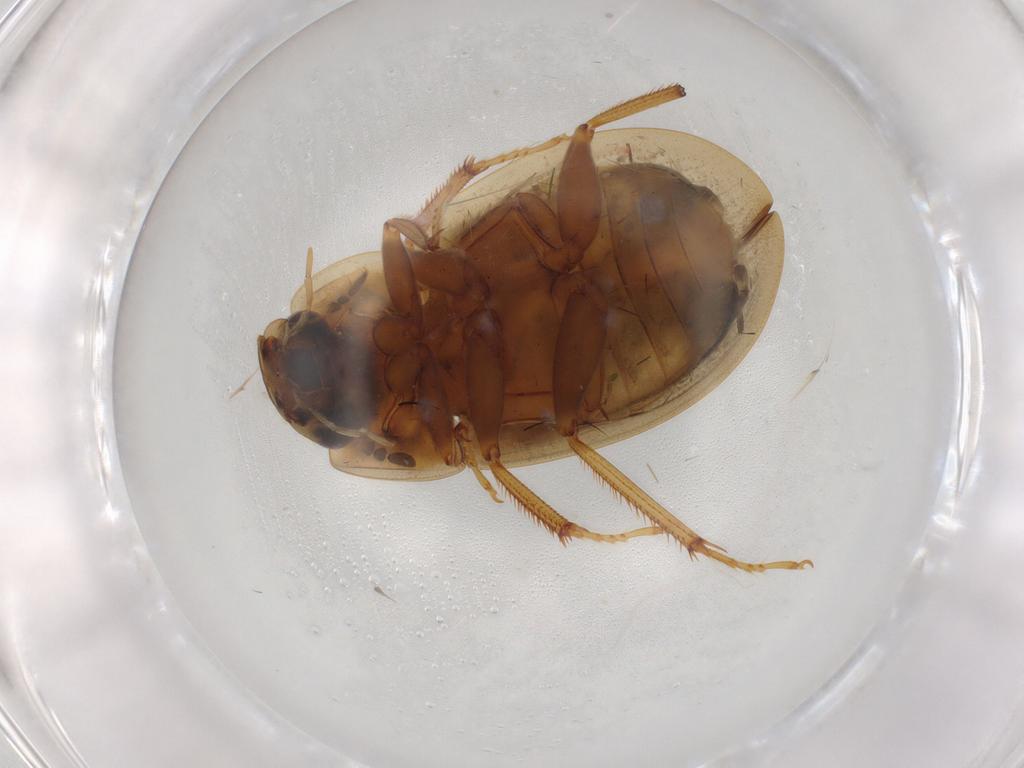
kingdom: Animalia
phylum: Arthropoda
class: Insecta
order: Coleoptera
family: Hydrophilidae
